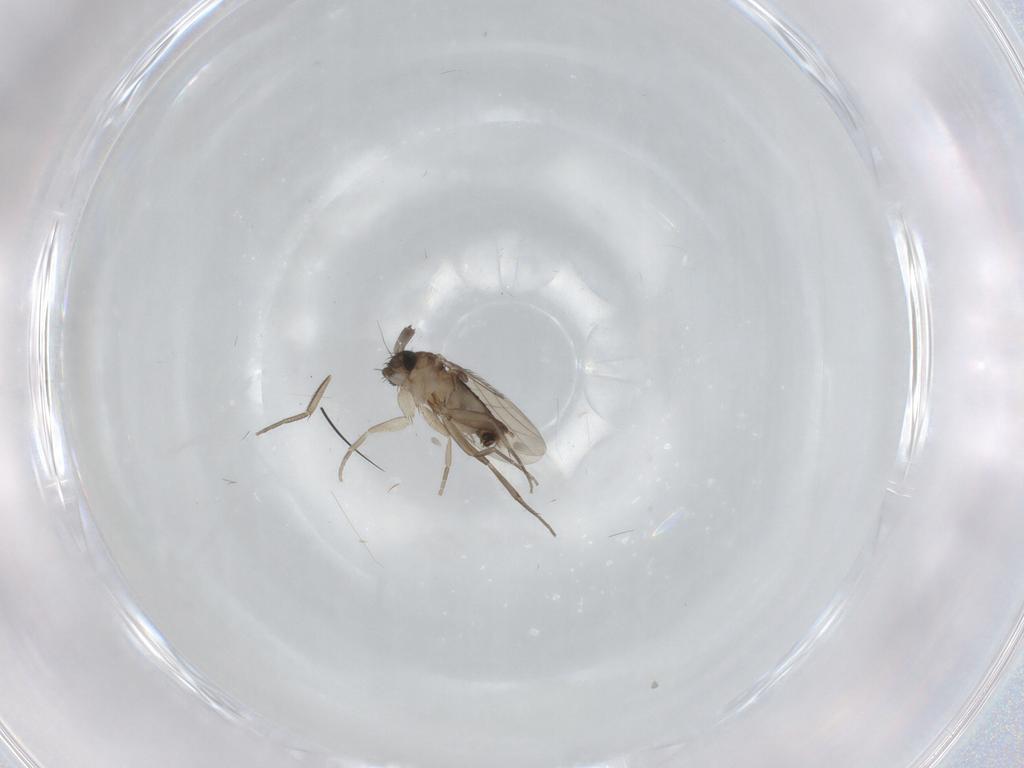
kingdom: Animalia
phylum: Arthropoda
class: Insecta
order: Diptera
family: Phoridae
